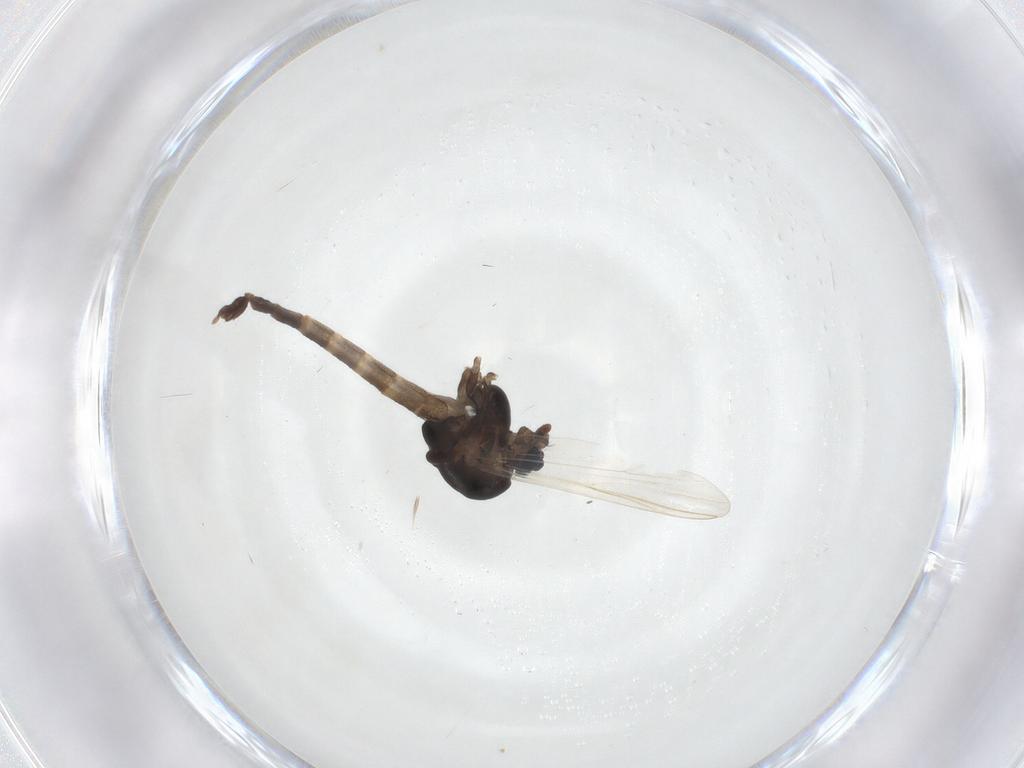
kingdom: Animalia
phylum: Arthropoda
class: Insecta
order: Diptera
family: Chironomidae
